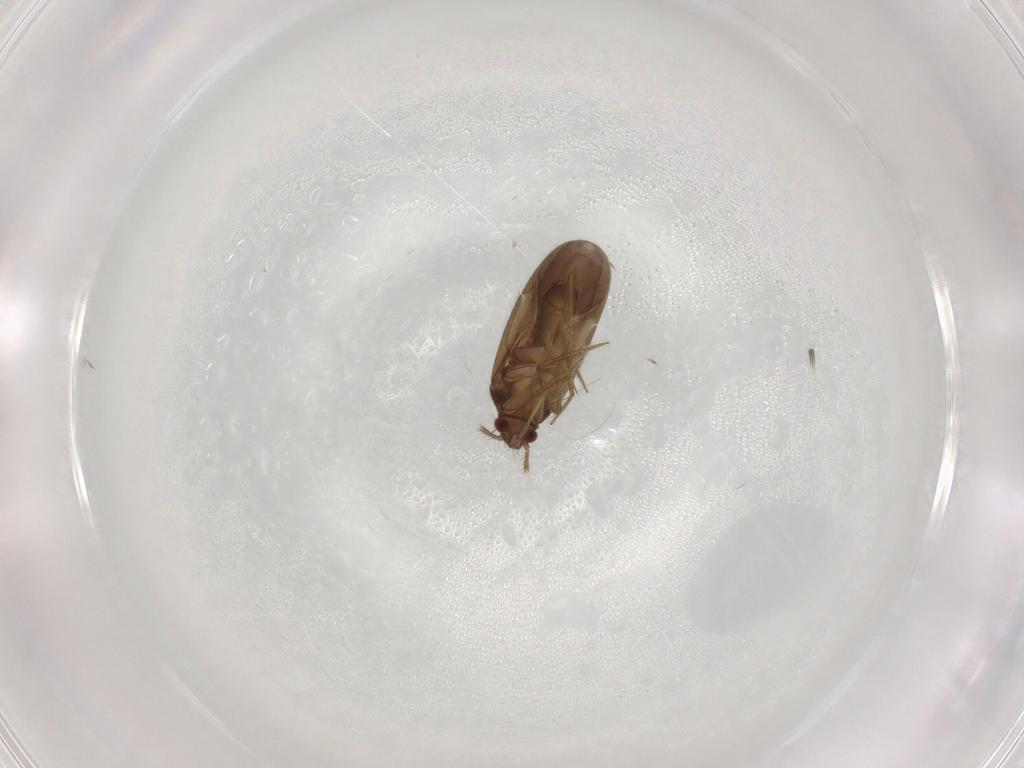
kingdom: Animalia
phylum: Arthropoda
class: Insecta
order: Hemiptera
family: Ceratocombidae
